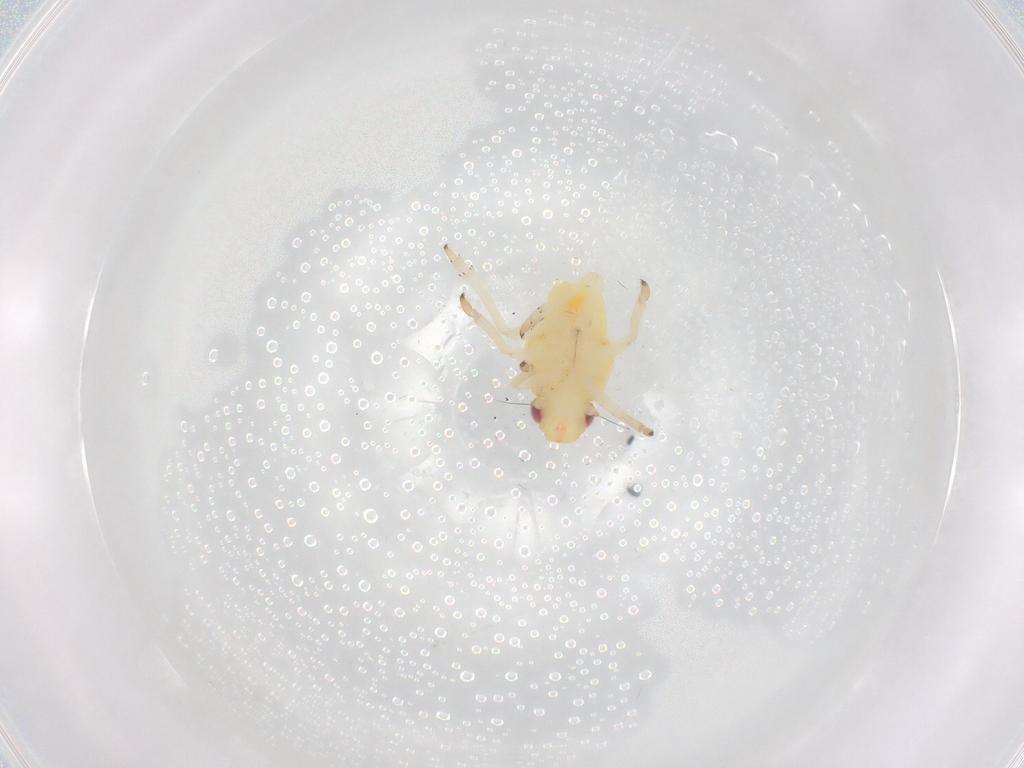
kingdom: Animalia
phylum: Arthropoda
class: Insecta
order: Hemiptera
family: Caliscelidae
